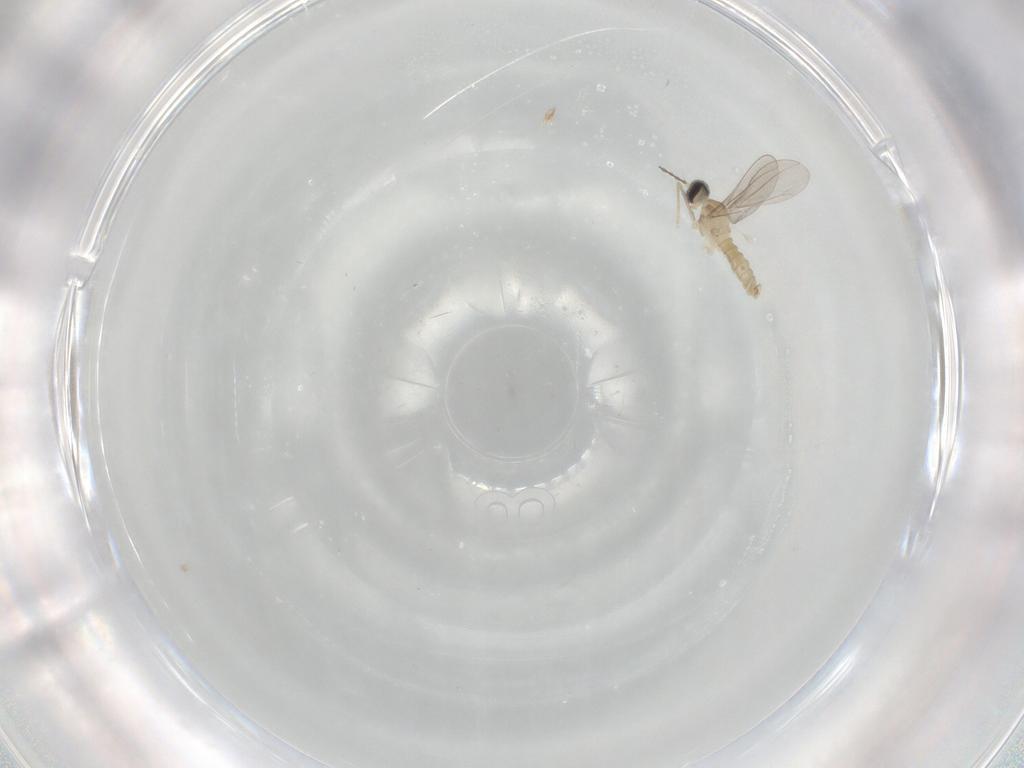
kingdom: Animalia
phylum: Arthropoda
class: Insecta
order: Diptera
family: Cecidomyiidae
